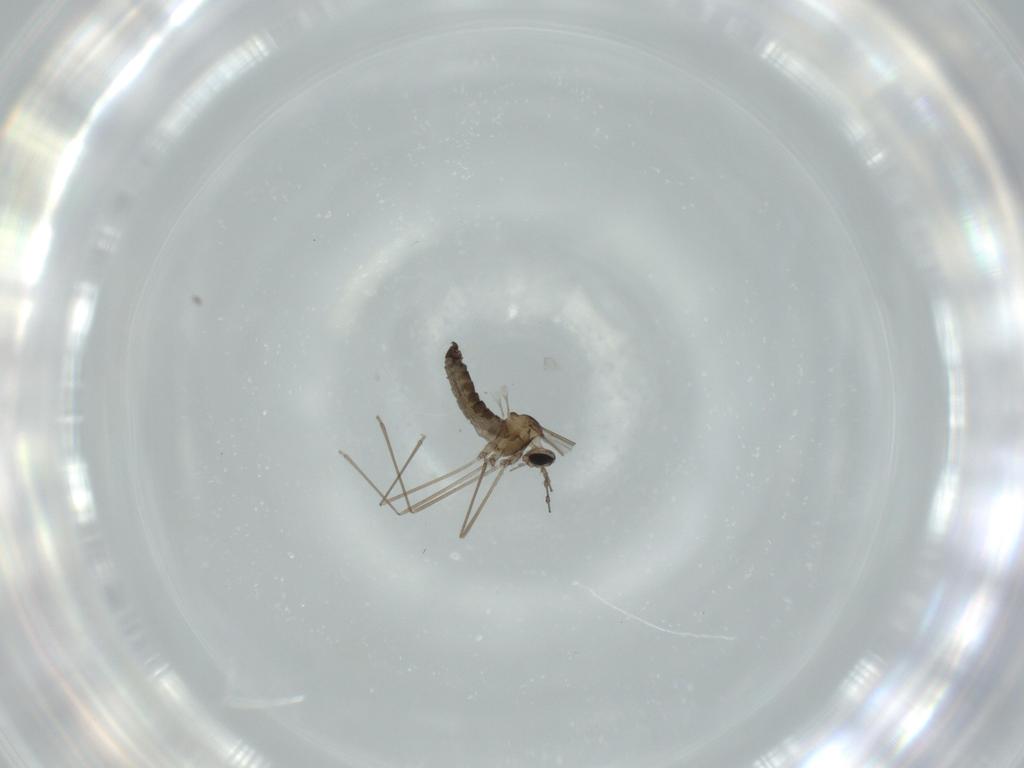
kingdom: Animalia
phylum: Arthropoda
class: Insecta
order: Diptera
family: Cecidomyiidae
